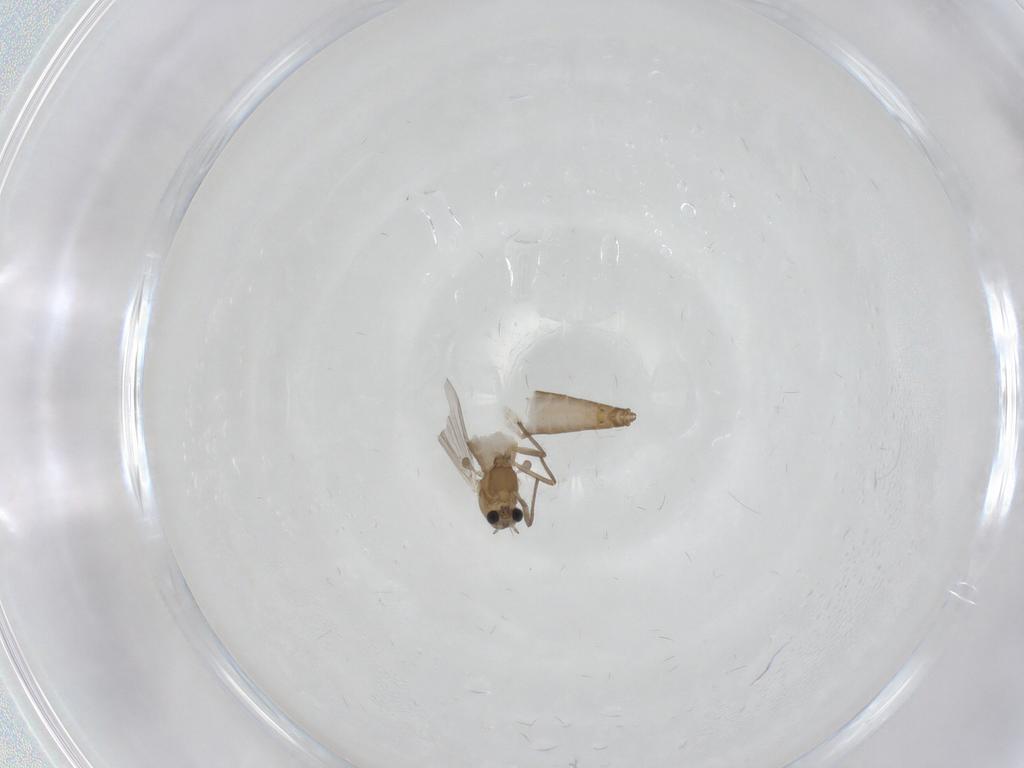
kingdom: Animalia
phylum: Arthropoda
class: Insecta
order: Diptera
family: Chironomidae
